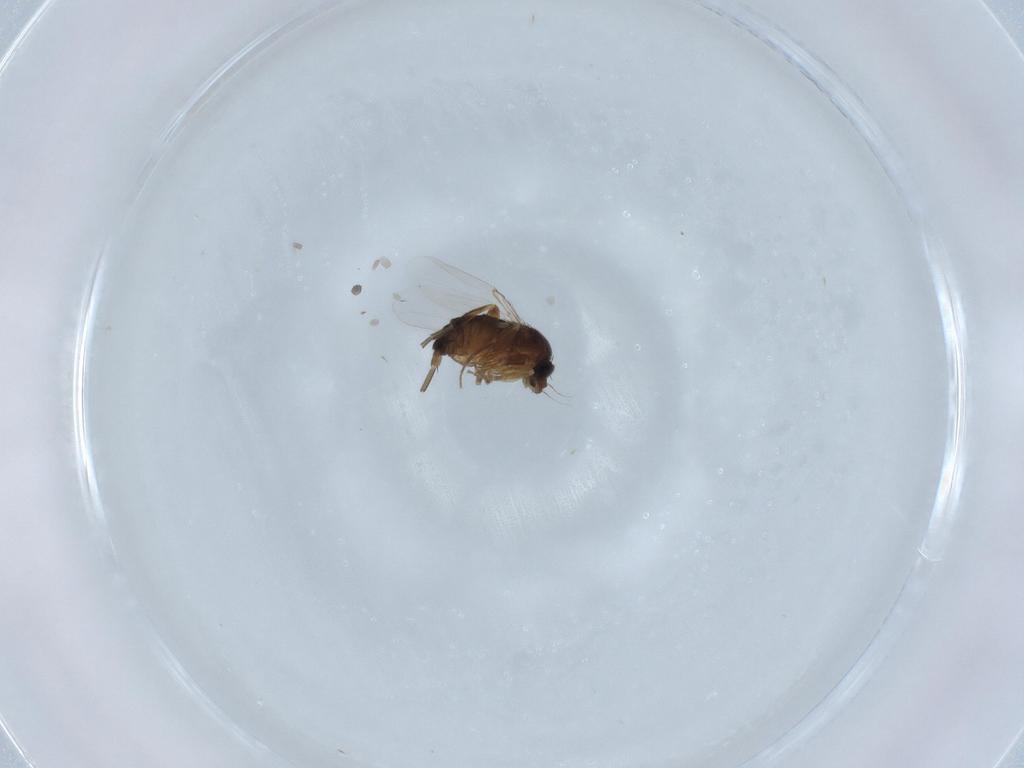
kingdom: Animalia
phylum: Arthropoda
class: Insecta
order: Diptera
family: Phoridae
